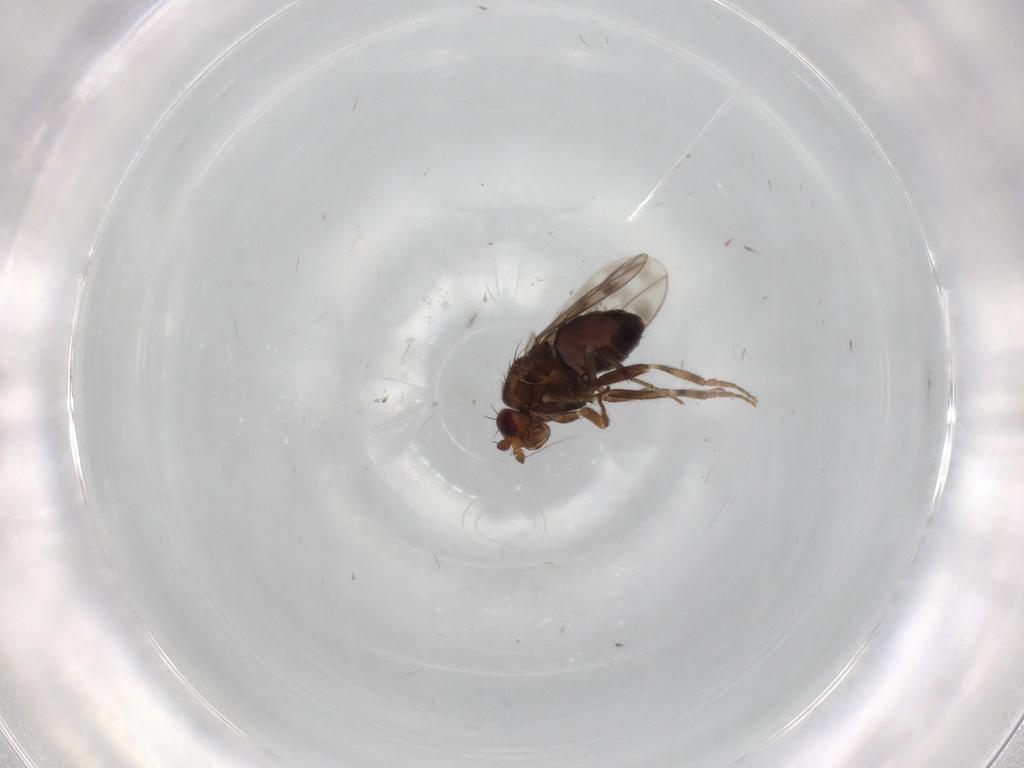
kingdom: Animalia
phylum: Arthropoda
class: Insecta
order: Diptera
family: Sphaeroceridae
